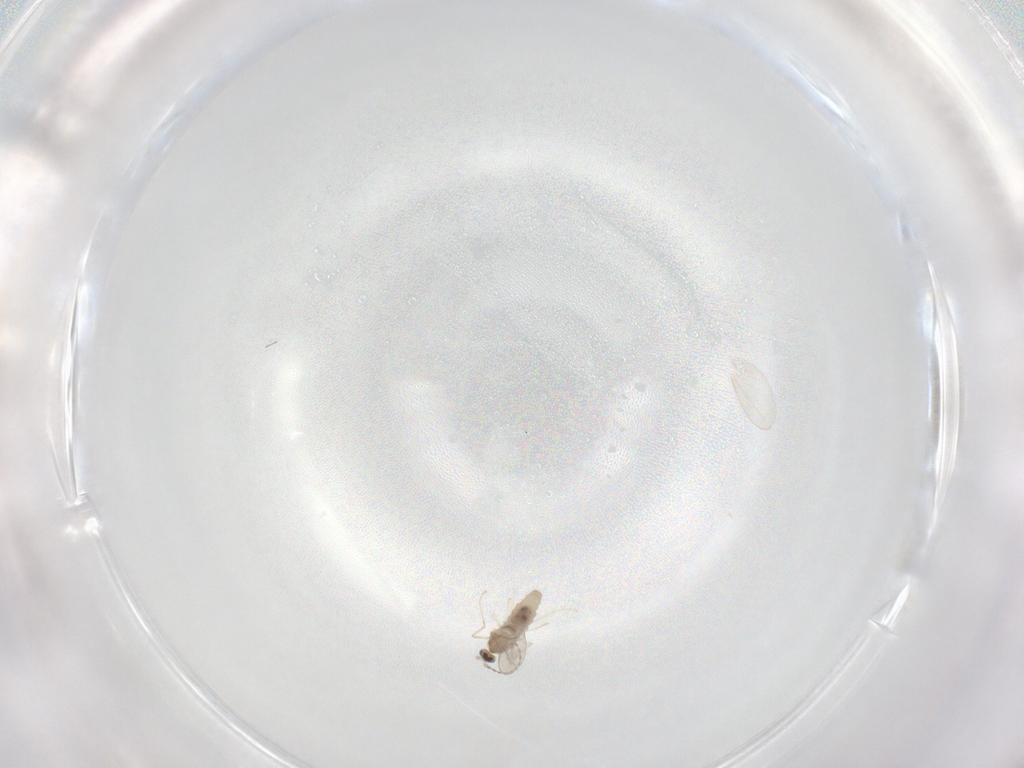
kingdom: Animalia
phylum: Arthropoda
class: Insecta
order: Diptera
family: Cecidomyiidae
